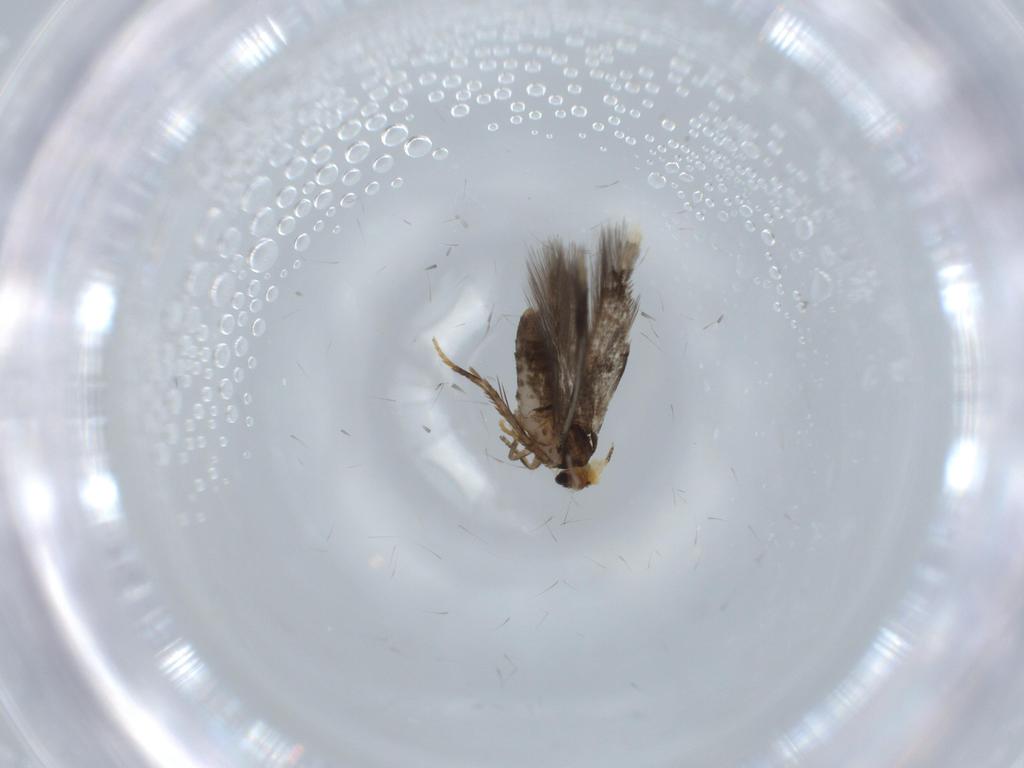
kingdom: Animalia
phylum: Arthropoda
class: Insecta
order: Lepidoptera
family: Nepticulidae
